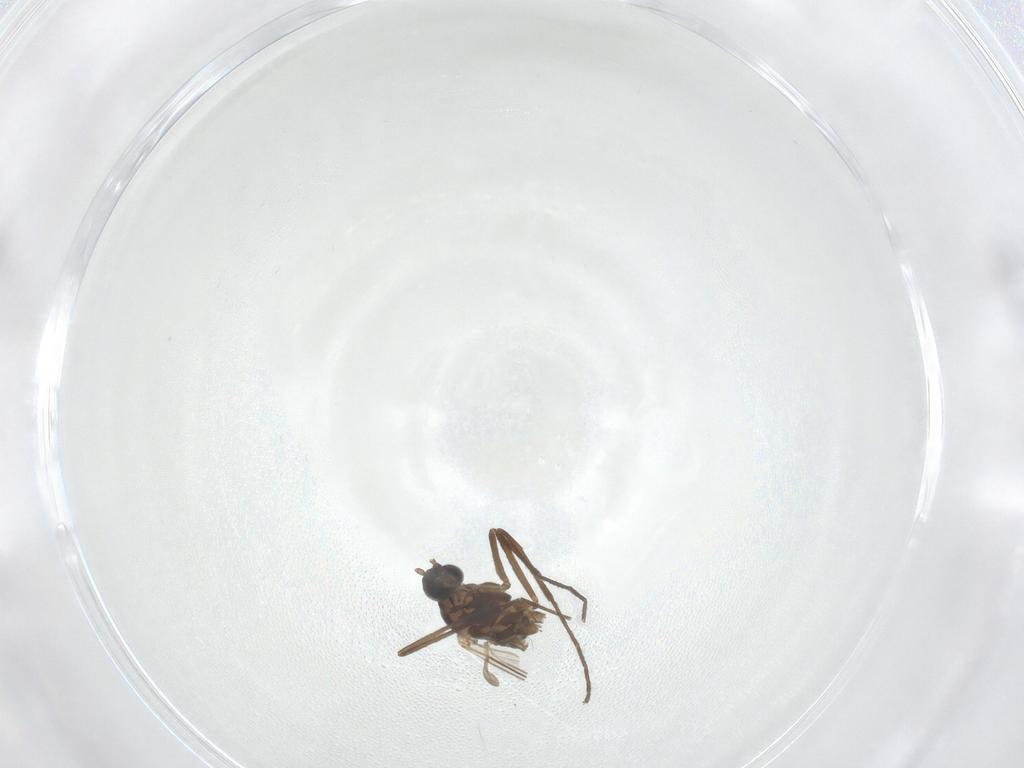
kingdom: Animalia
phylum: Arthropoda
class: Insecta
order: Diptera
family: Cecidomyiidae
